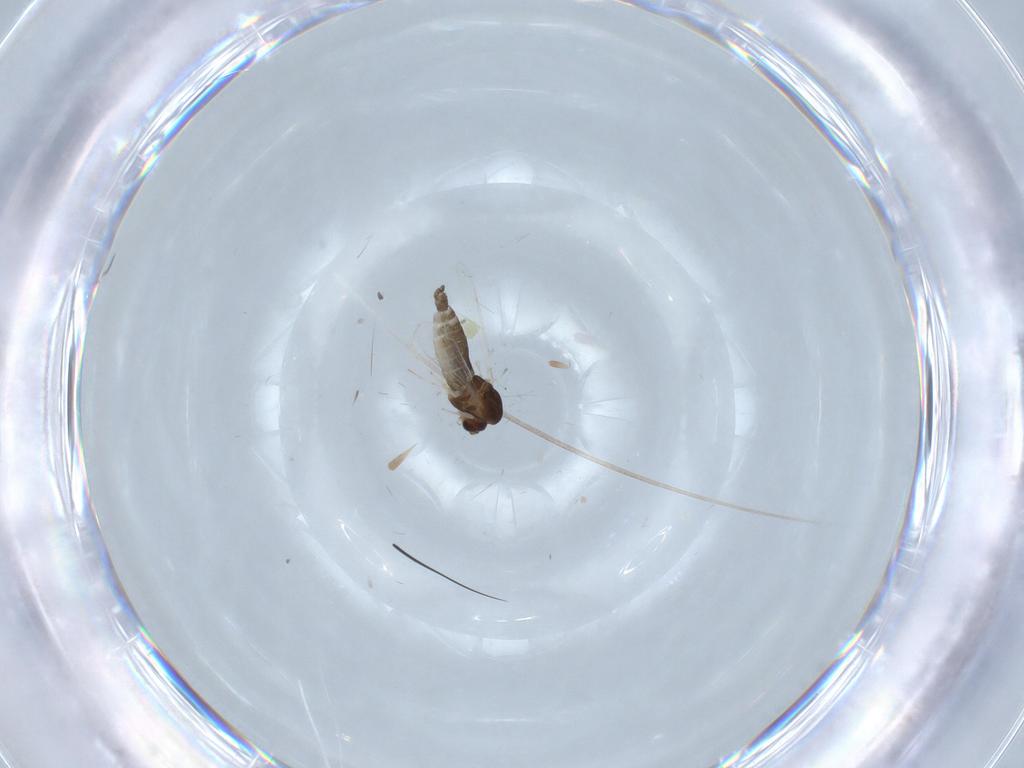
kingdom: Animalia
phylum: Arthropoda
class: Insecta
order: Diptera
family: Chironomidae
